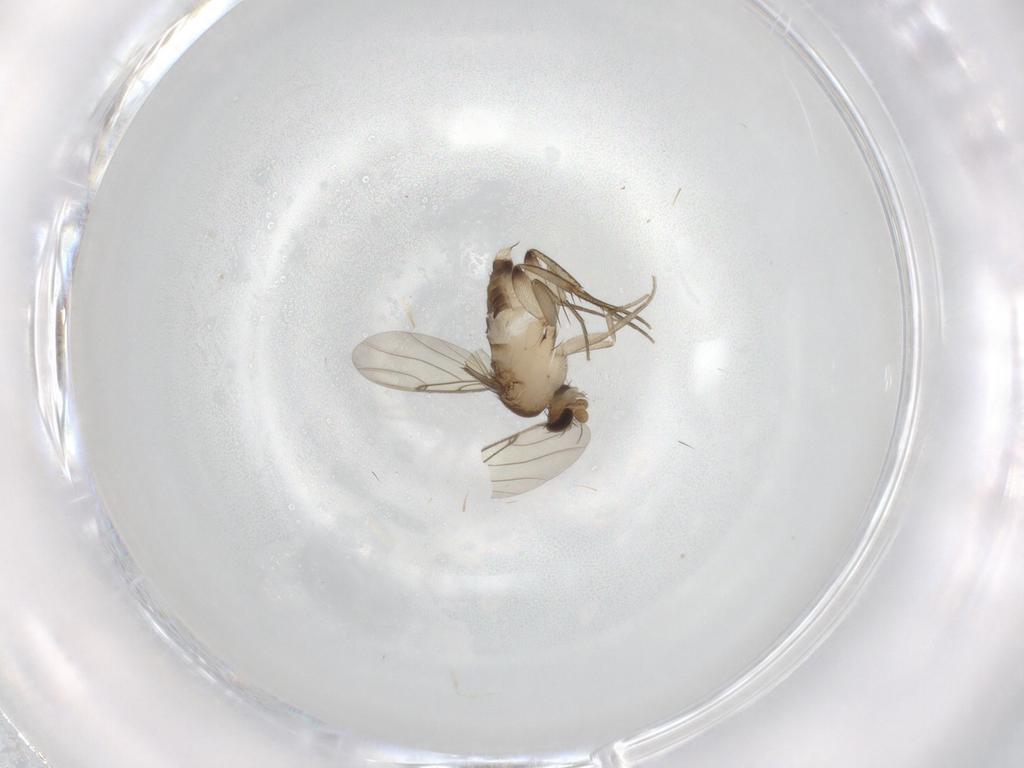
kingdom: Animalia
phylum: Arthropoda
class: Insecta
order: Diptera
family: Phoridae
